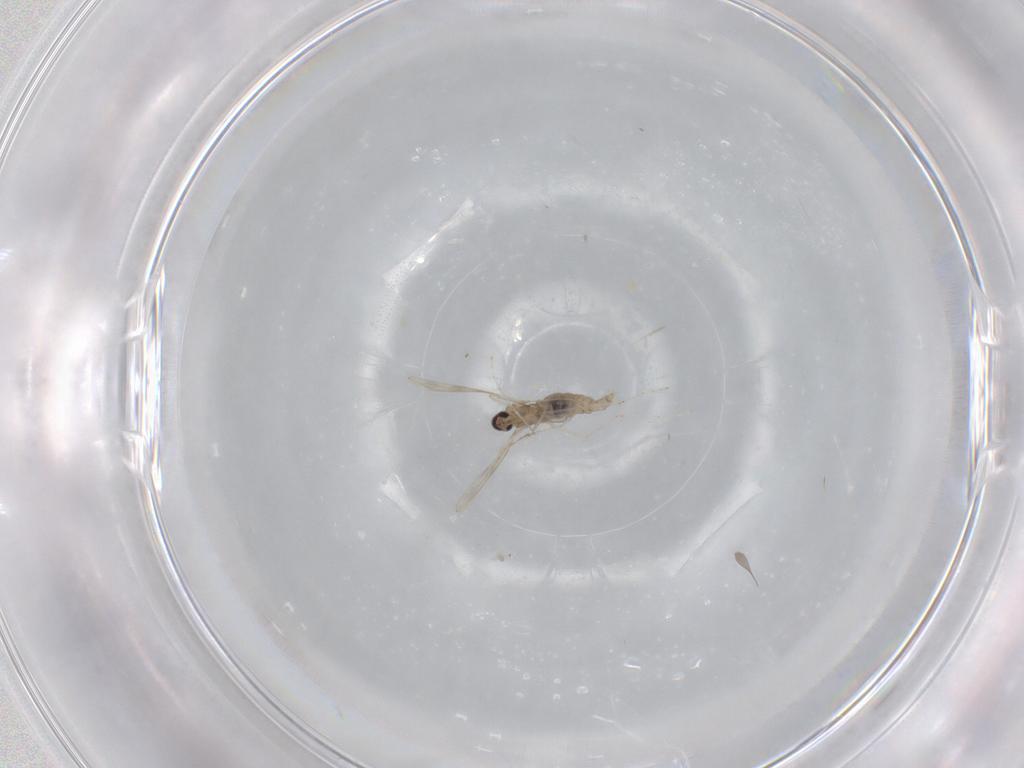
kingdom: Animalia
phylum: Arthropoda
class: Insecta
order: Diptera
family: Cecidomyiidae
